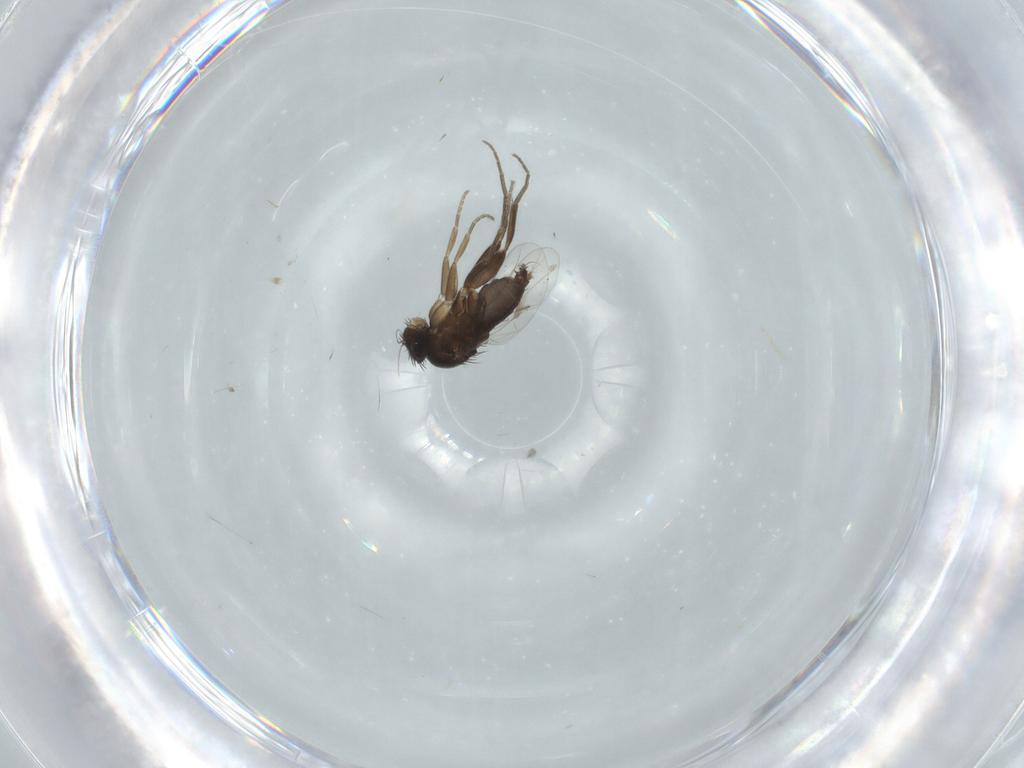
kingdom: Animalia
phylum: Arthropoda
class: Insecta
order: Diptera
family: Phoridae
